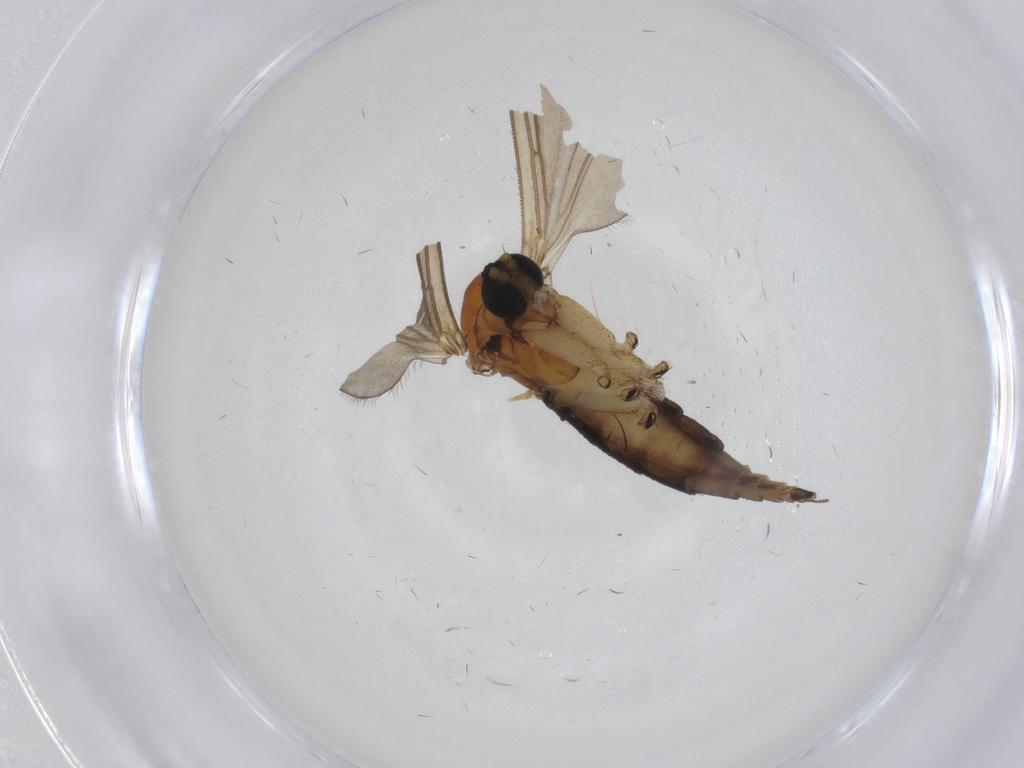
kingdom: Animalia
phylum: Arthropoda
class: Insecta
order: Diptera
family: Sciaridae
